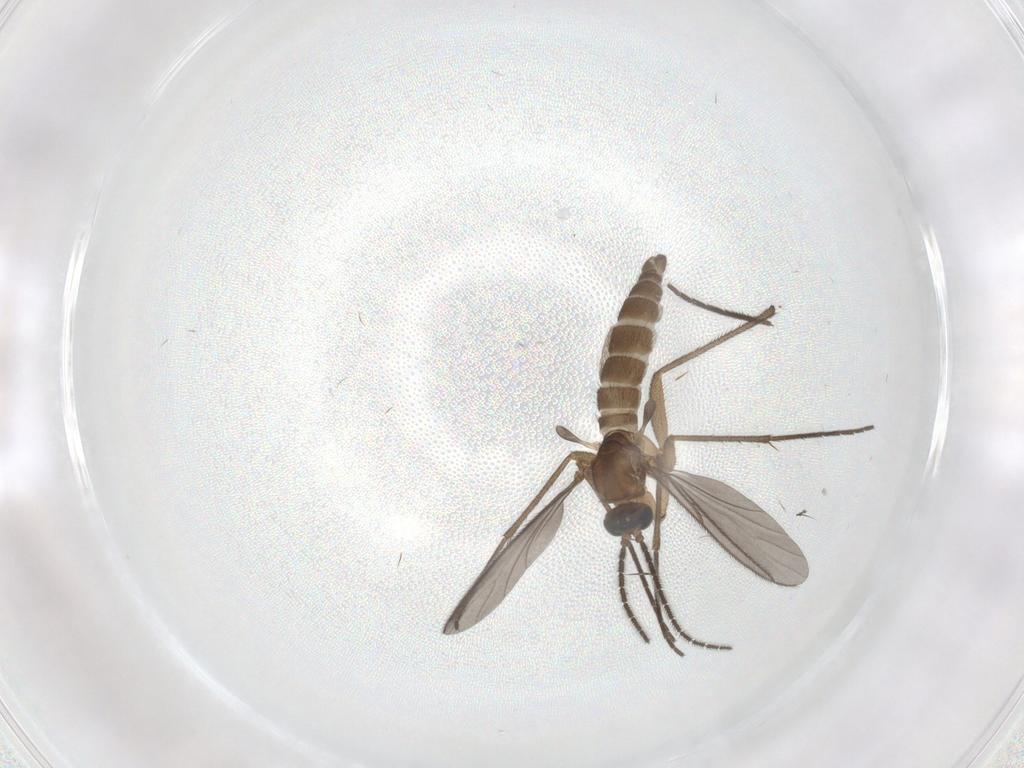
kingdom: Animalia
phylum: Arthropoda
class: Insecta
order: Diptera
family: Sciaridae
